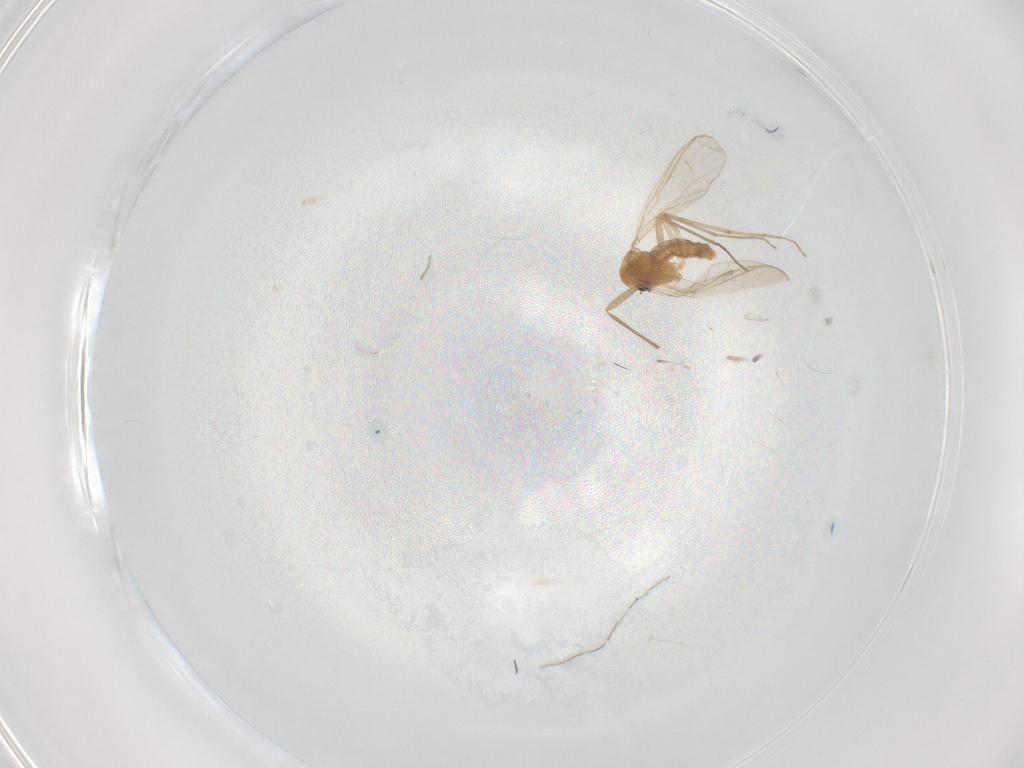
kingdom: Animalia
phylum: Arthropoda
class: Insecta
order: Diptera
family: Chironomidae
